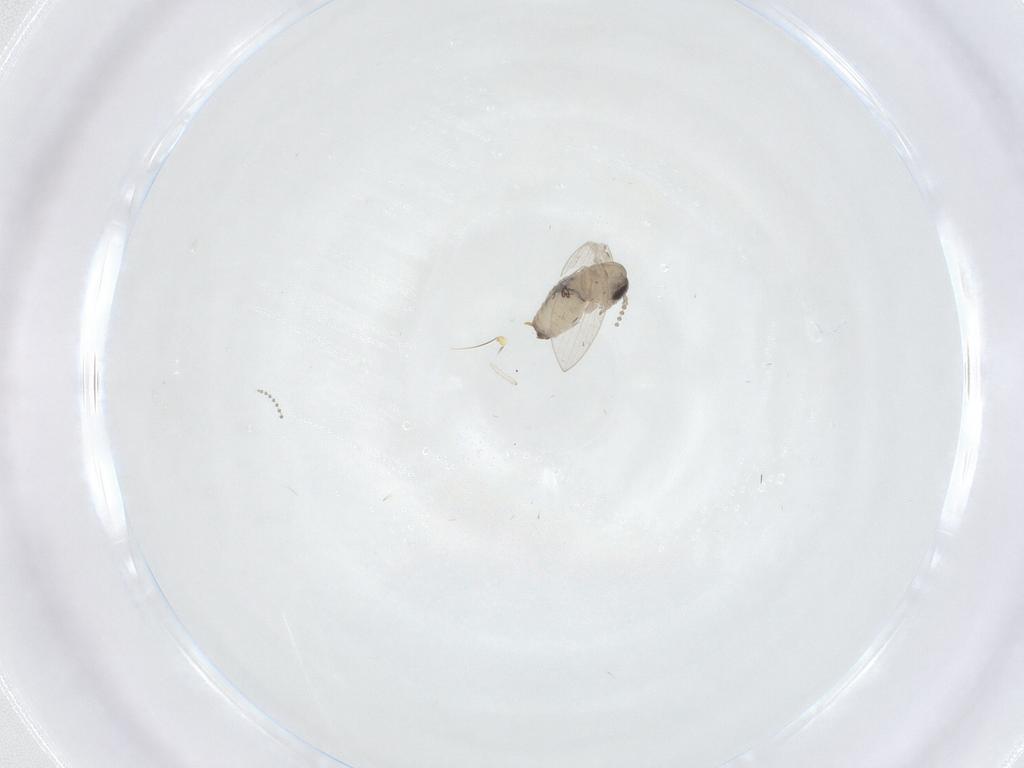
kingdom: Animalia
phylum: Arthropoda
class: Insecta
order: Diptera
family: Psychodidae
